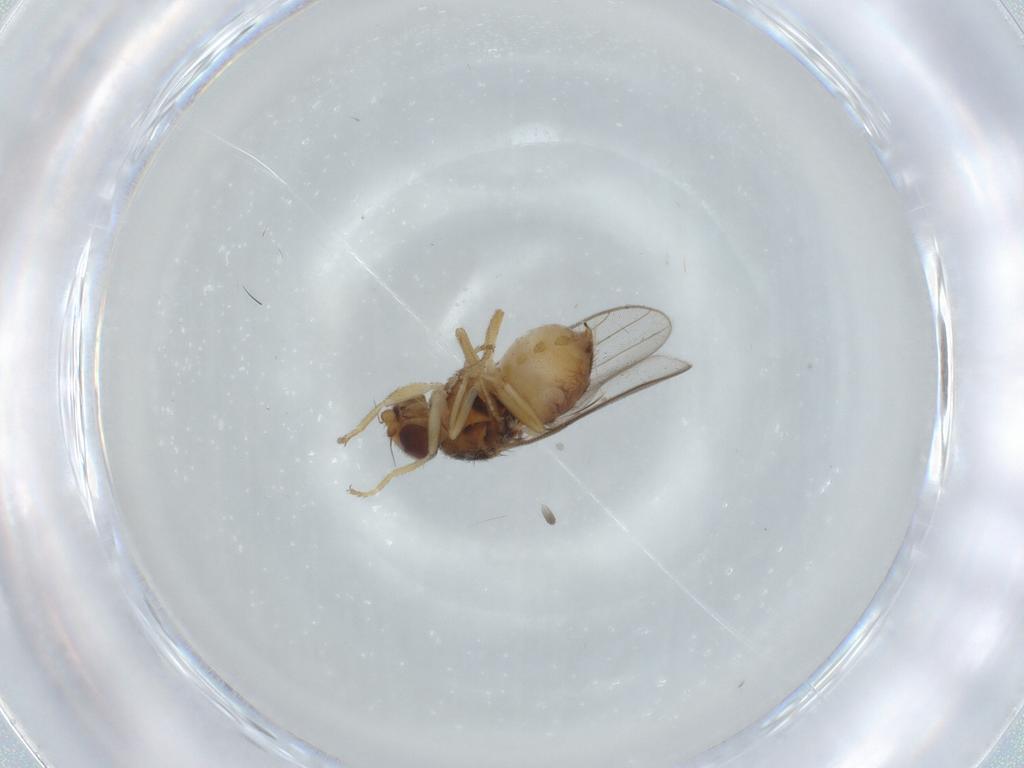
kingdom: Animalia
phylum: Arthropoda
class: Insecta
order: Diptera
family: Chloropidae
